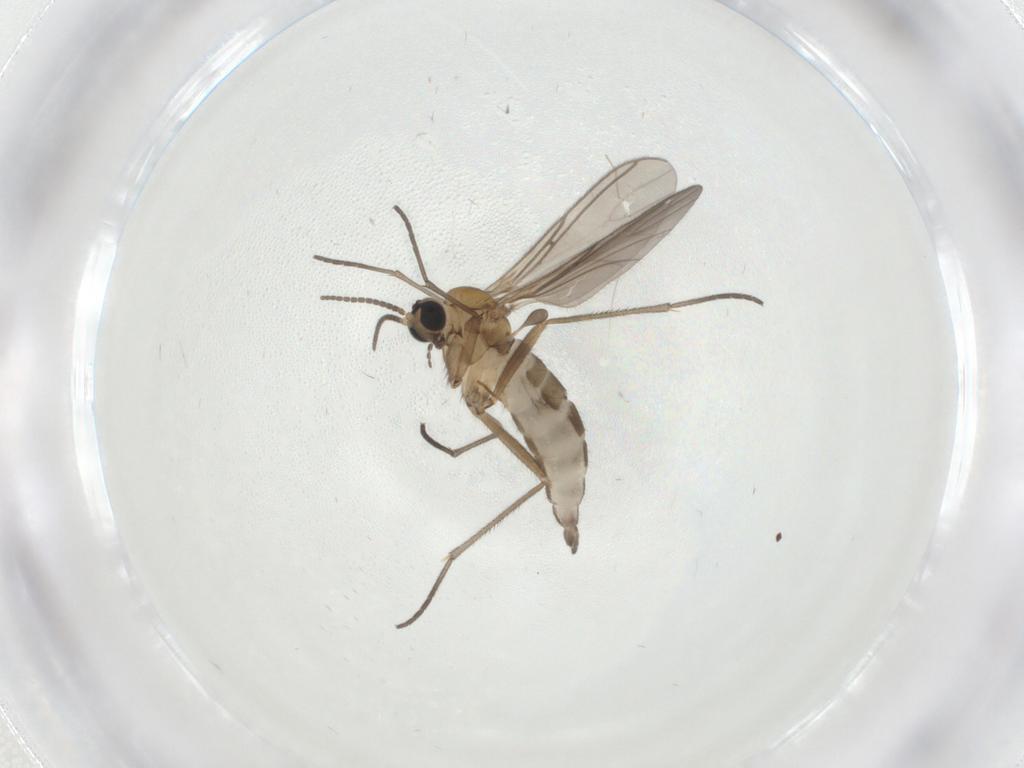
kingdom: Animalia
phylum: Arthropoda
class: Insecta
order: Diptera
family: Sciaridae
